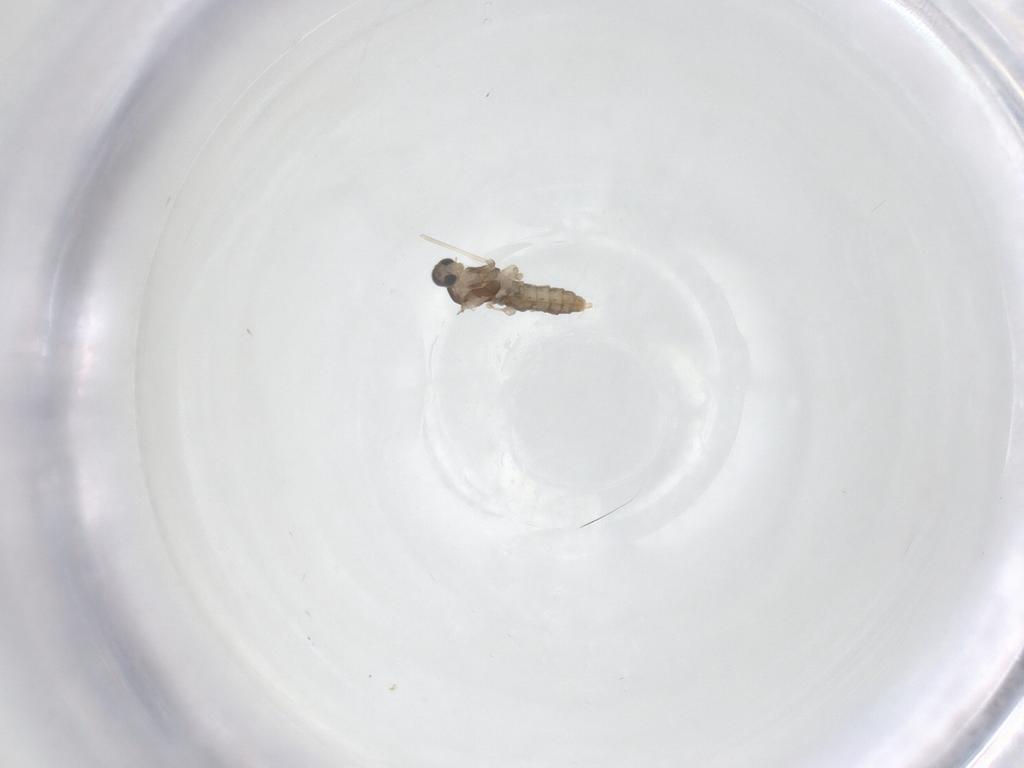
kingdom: Animalia
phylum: Arthropoda
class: Insecta
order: Diptera
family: Cecidomyiidae
